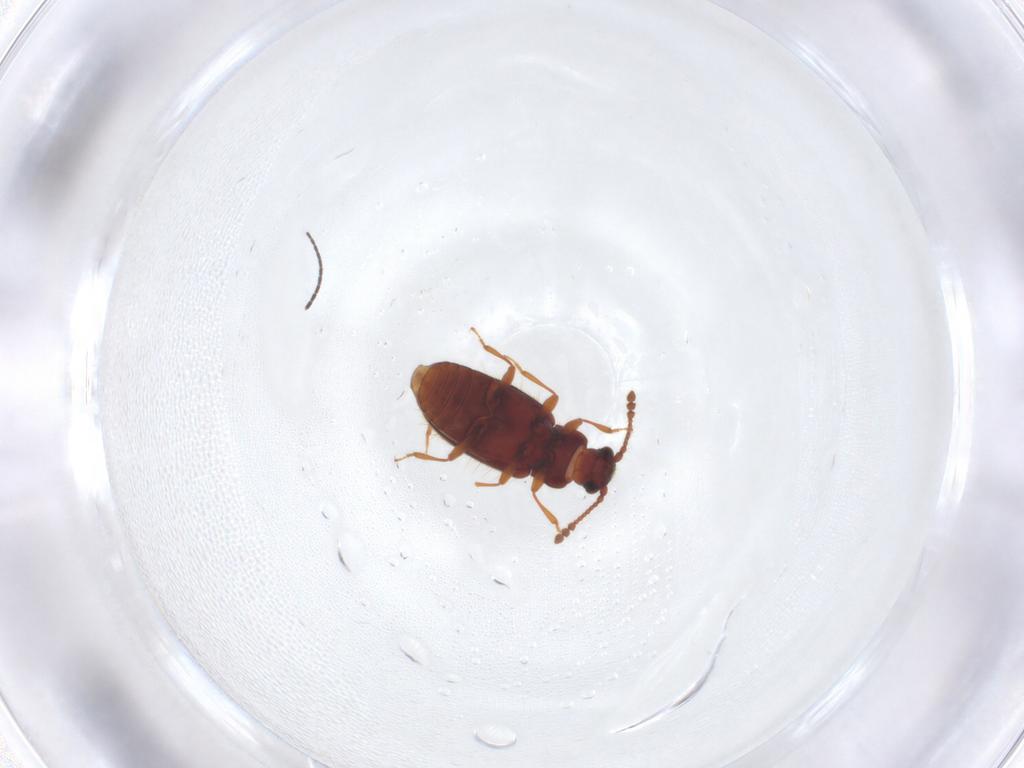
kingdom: Animalia
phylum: Arthropoda
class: Insecta
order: Coleoptera
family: Cryptophagidae
